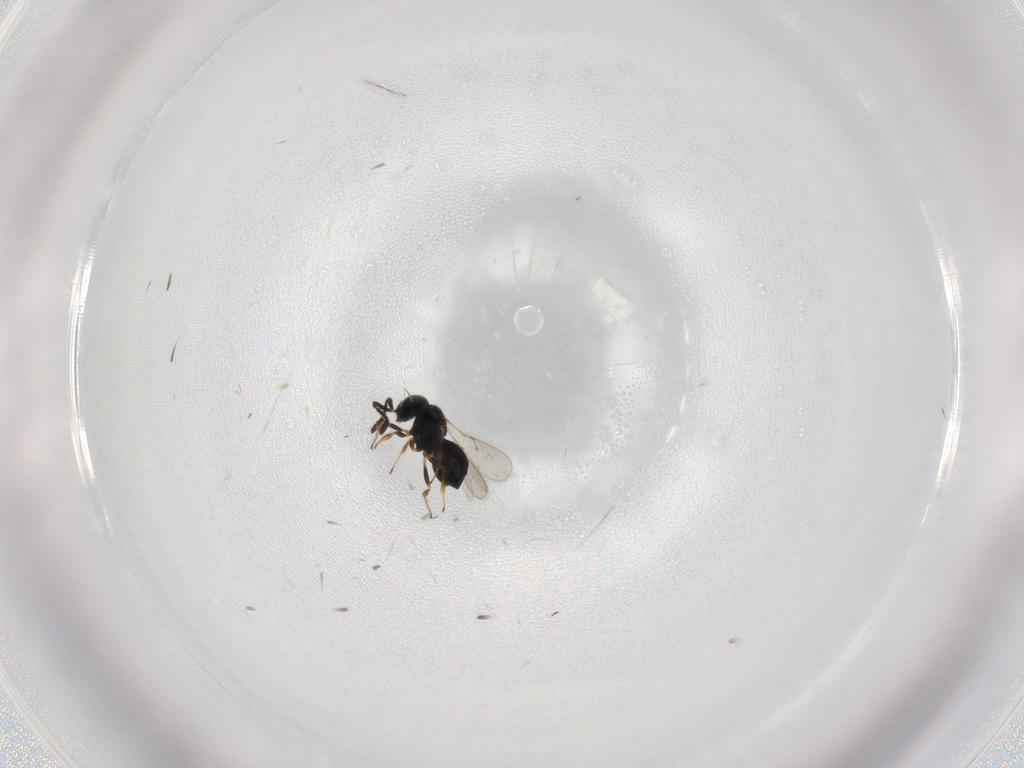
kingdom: Animalia
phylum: Arthropoda
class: Insecta
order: Hymenoptera
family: Scelionidae
